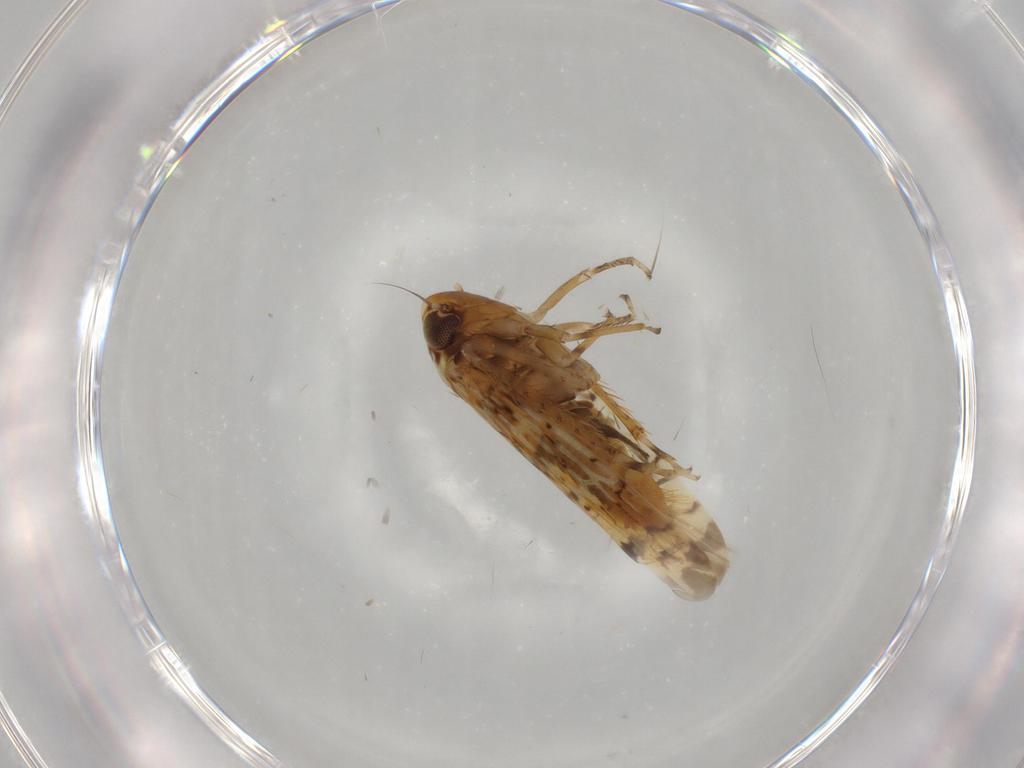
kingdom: Animalia
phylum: Arthropoda
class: Insecta
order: Hemiptera
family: Cicadellidae
